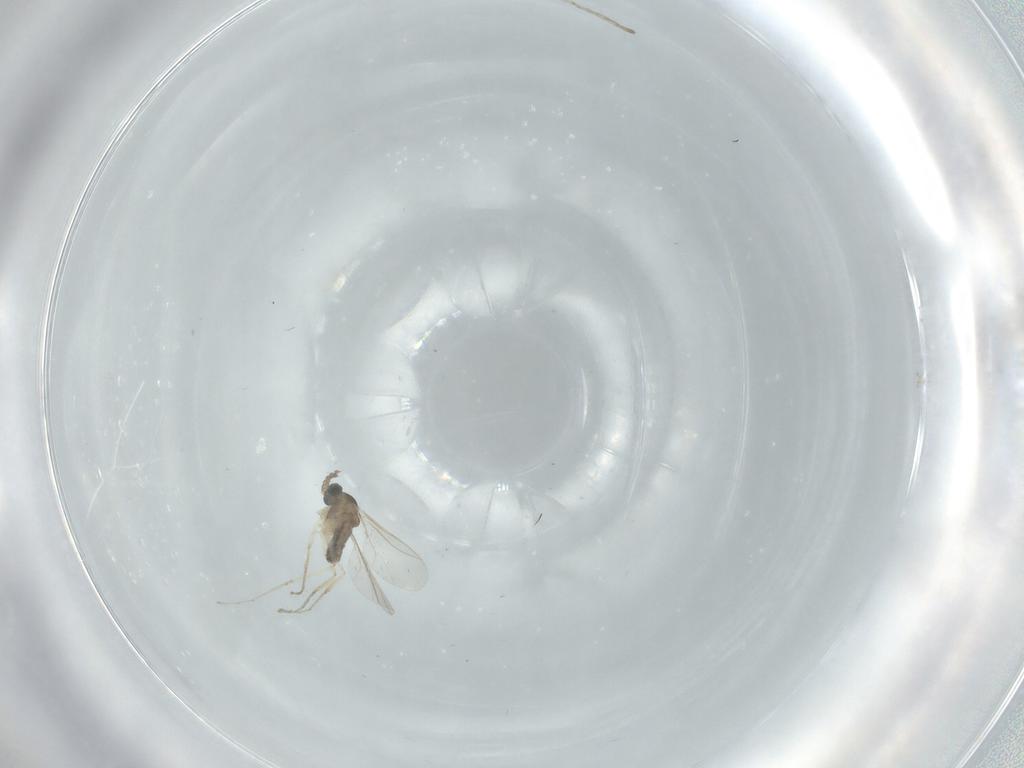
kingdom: Animalia
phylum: Arthropoda
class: Insecta
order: Diptera
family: Cecidomyiidae
